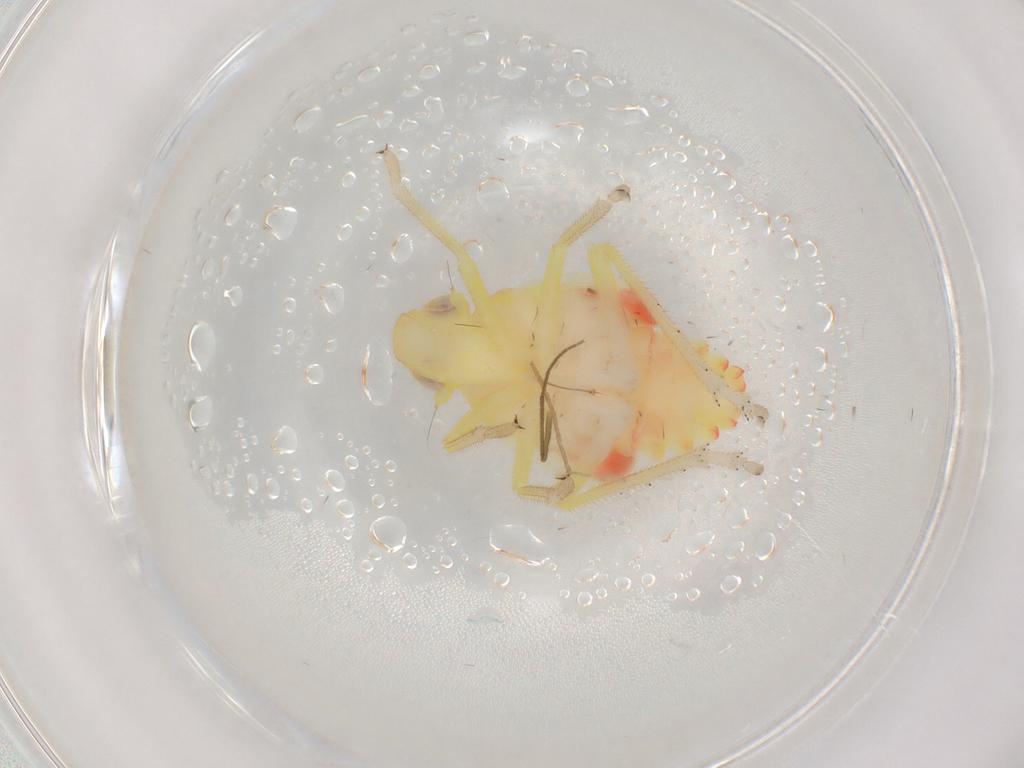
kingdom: Animalia
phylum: Arthropoda
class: Insecta
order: Hemiptera
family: Tropiduchidae
